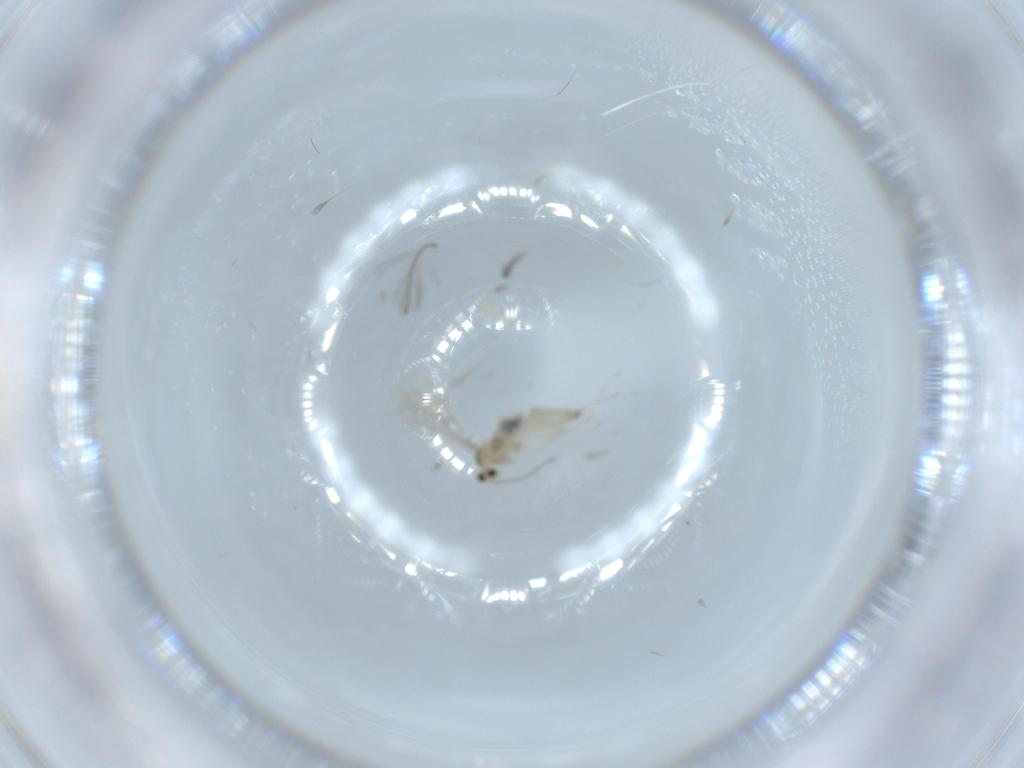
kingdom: Animalia
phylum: Arthropoda
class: Insecta
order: Diptera
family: Cecidomyiidae
